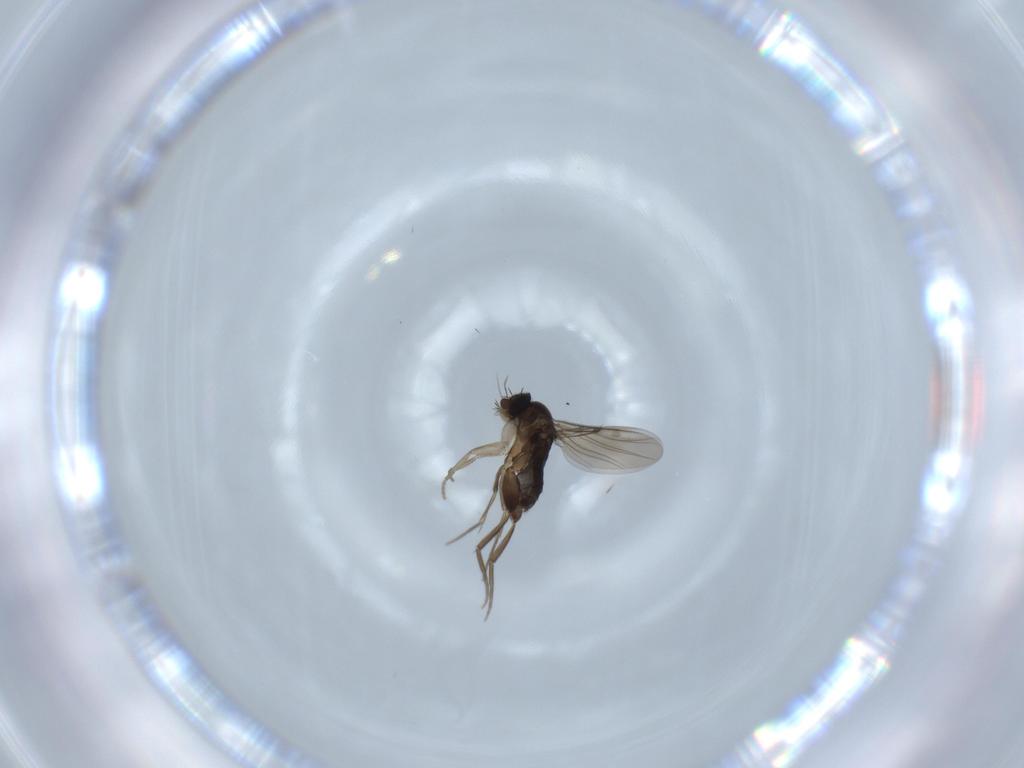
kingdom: Animalia
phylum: Arthropoda
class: Insecta
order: Diptera
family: Phoridae
